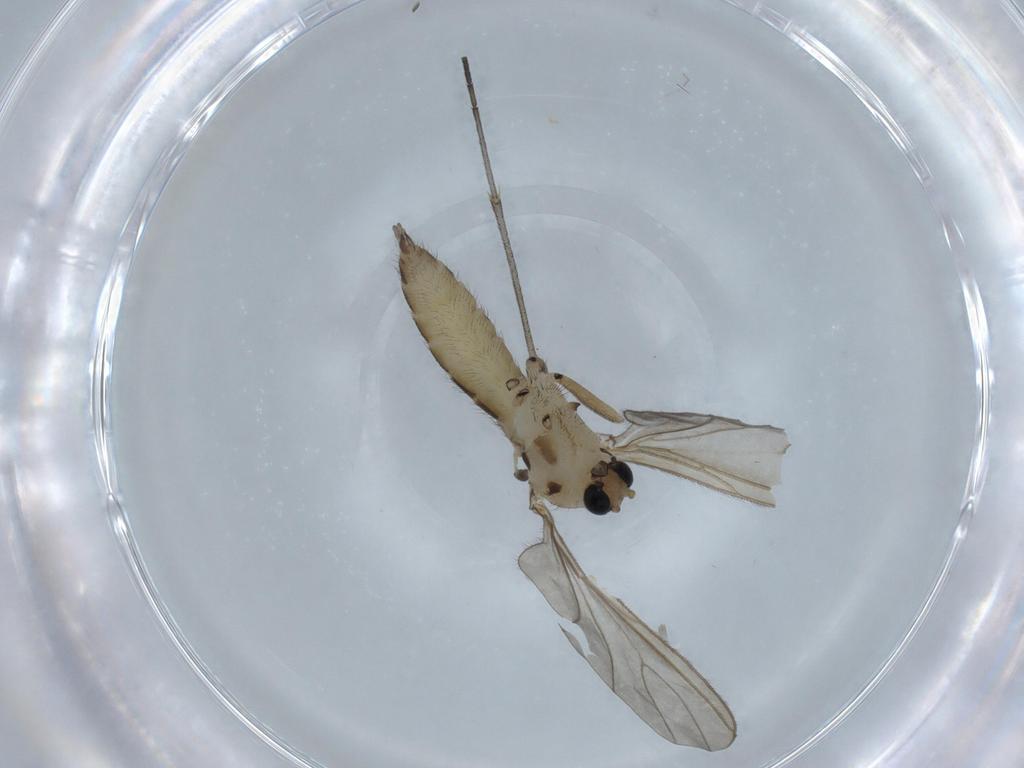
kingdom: Animalia
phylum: Arthropoda
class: Insecta
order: Diptera
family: Sciaridae
